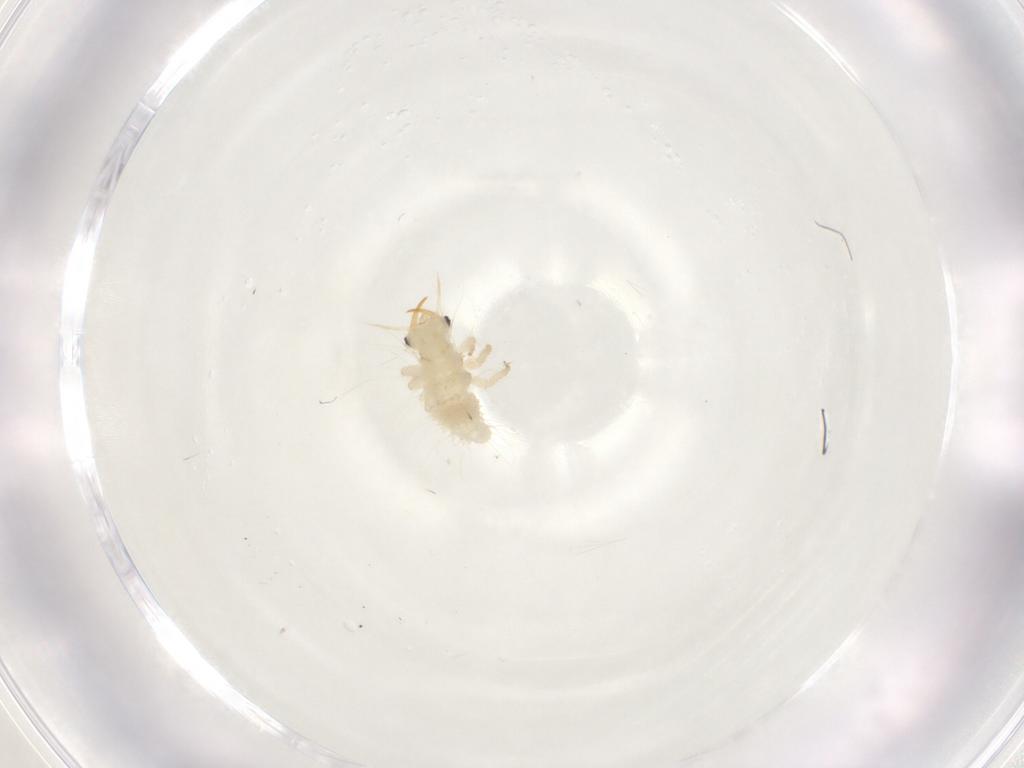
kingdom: Animalia
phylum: Arthropoda
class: Insecta
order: Neuroptera
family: Chrysopidae
